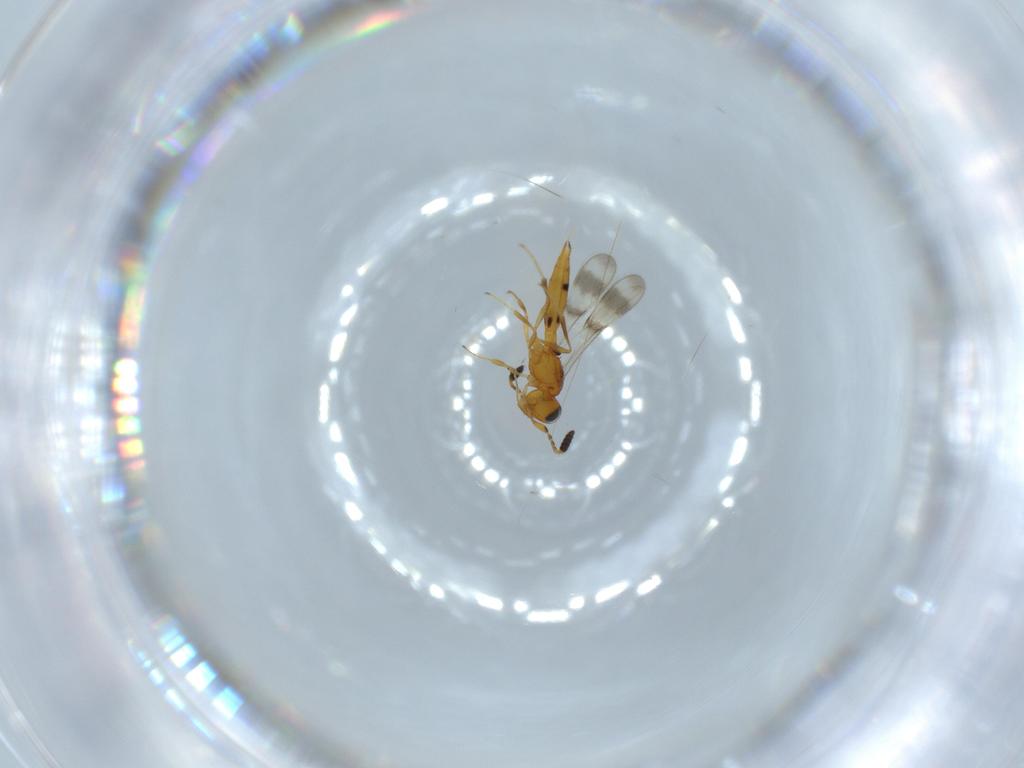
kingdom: Animalia
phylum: Arthropoda
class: Insecta
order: Hymenoptera
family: Scelionidae
